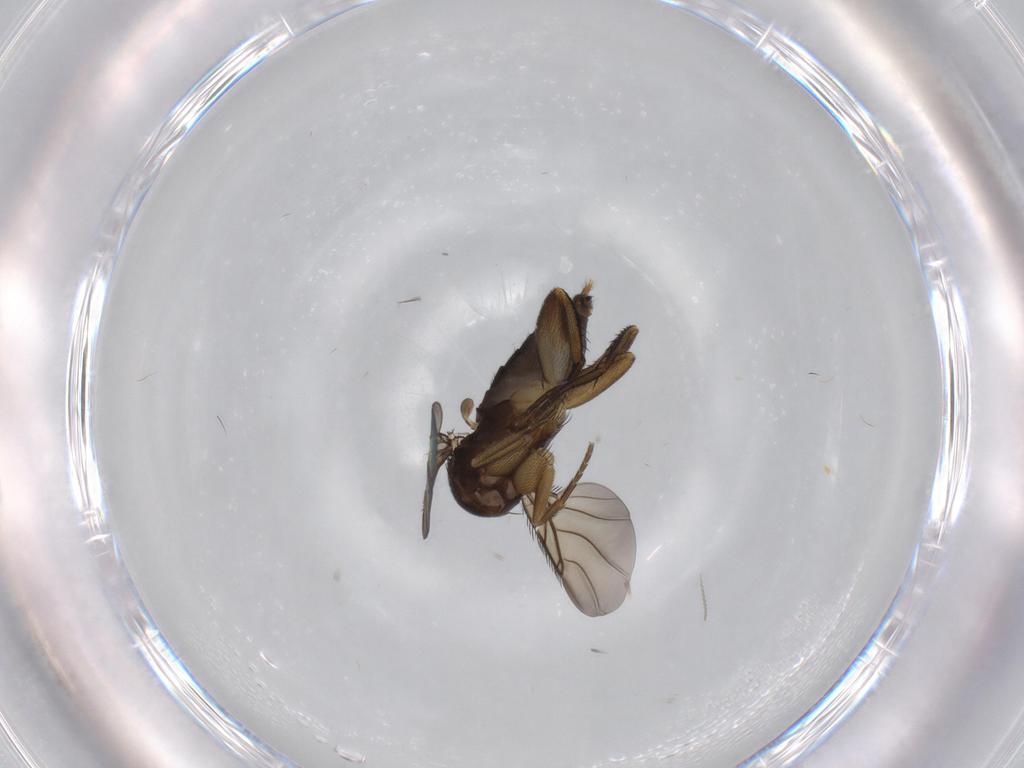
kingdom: Animalia
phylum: Arthropoda
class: Insecta
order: Diptera
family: Phoridae
